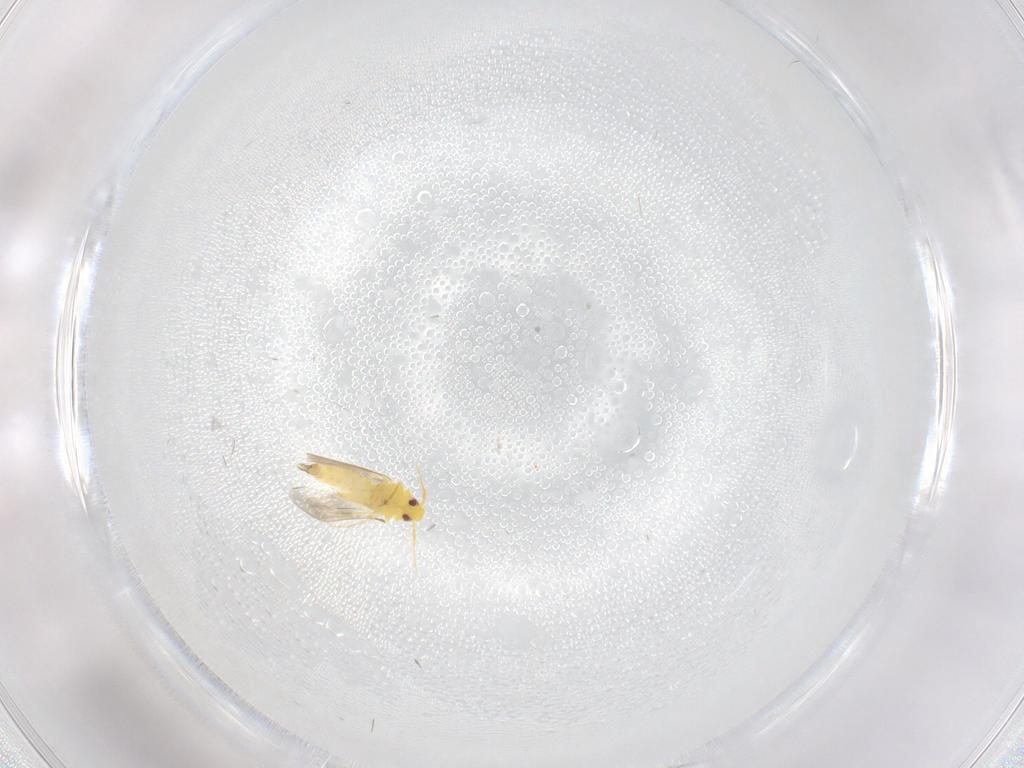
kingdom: Animalia
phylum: Arthropoda
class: Insecta
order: Hemiptera
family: Aleyrodidae
